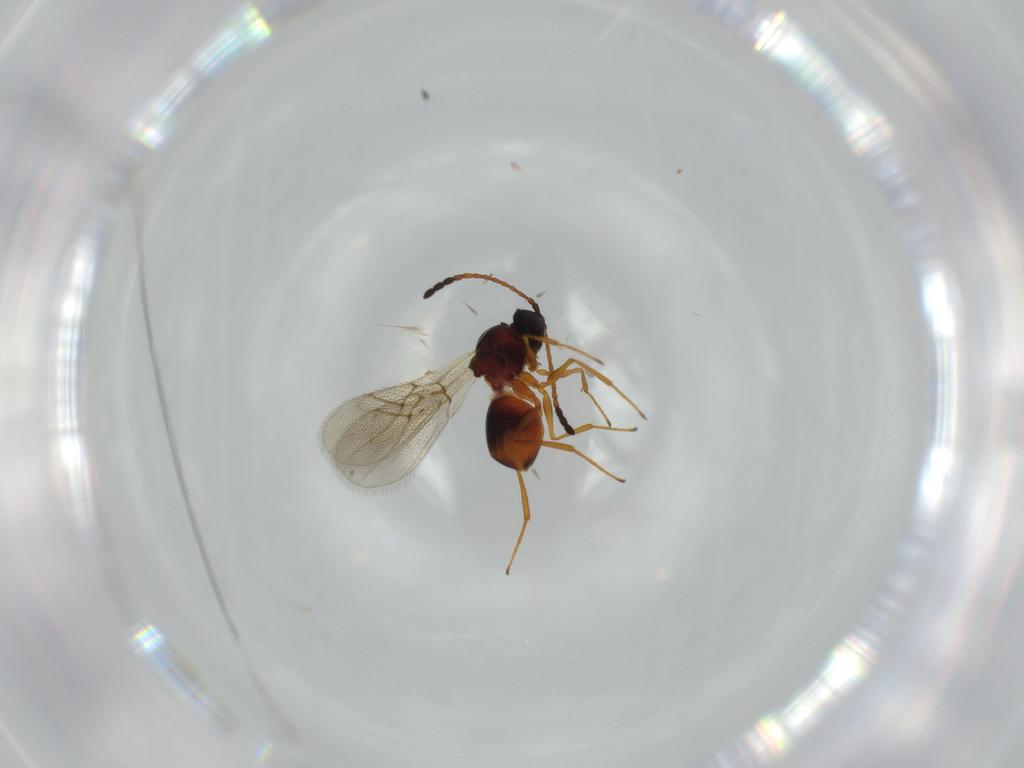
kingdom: Animalia
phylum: Arthropoda
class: Insecta
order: Hymenoptera
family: Figitidae
